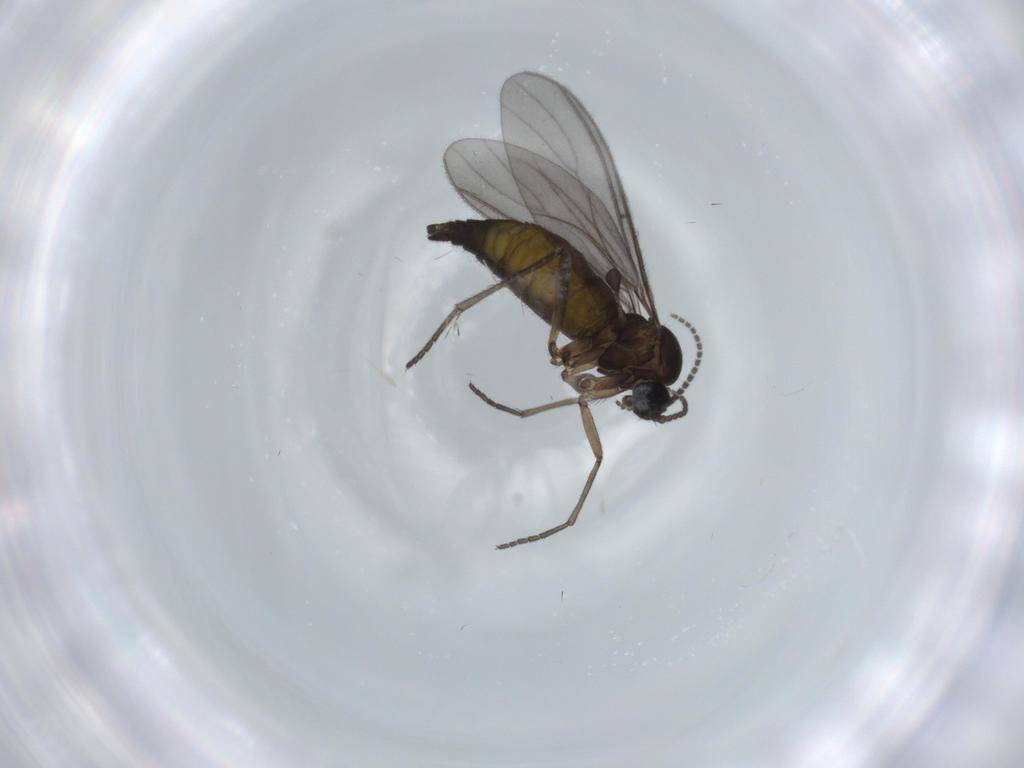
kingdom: Animalia
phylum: Arthropoda
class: Insecta
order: Diptera
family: Sciaridae
